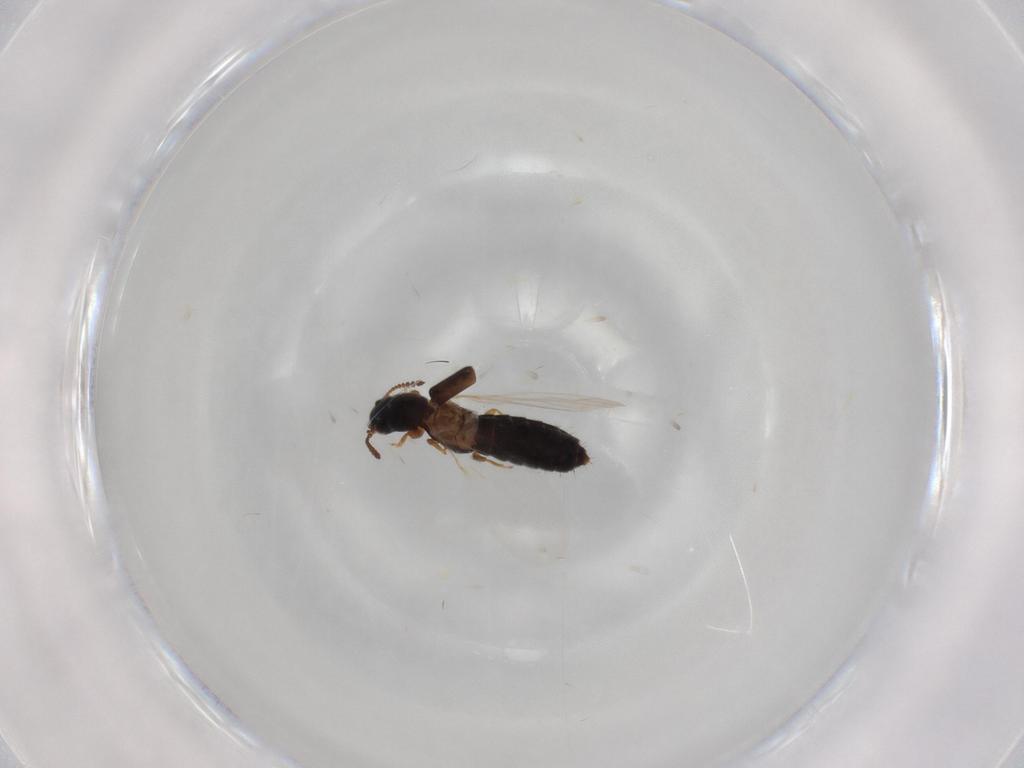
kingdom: Animalia
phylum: Arthropoda
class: Insecta
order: Coleoptera
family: Staphylinidae
